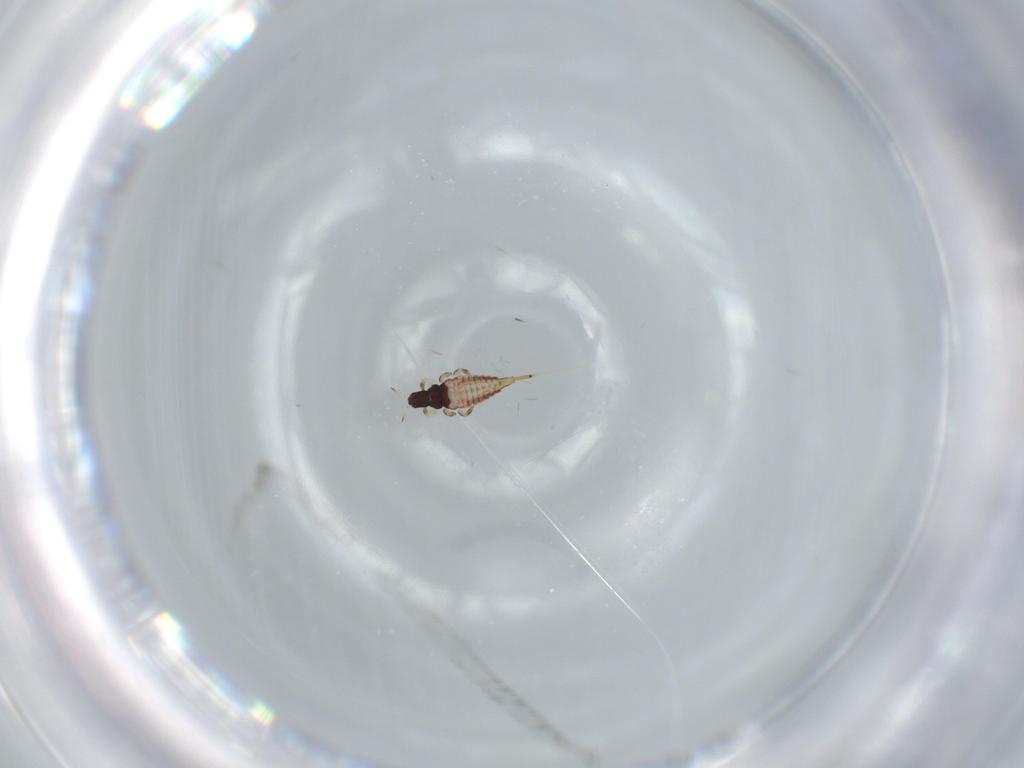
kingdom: Animalia
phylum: Arthropoda
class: Insecta
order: Thysanoptera
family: Phlaeothripidae
